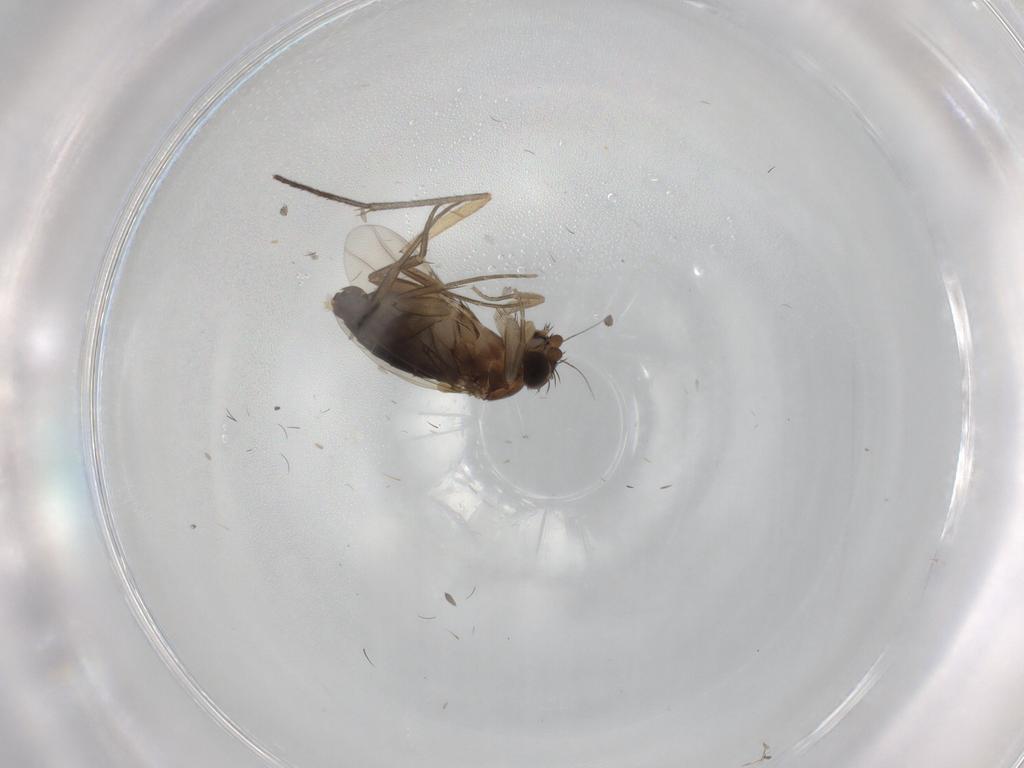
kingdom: Animalia
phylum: Arthropoda
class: Insecta
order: Diptera
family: Phoridae
